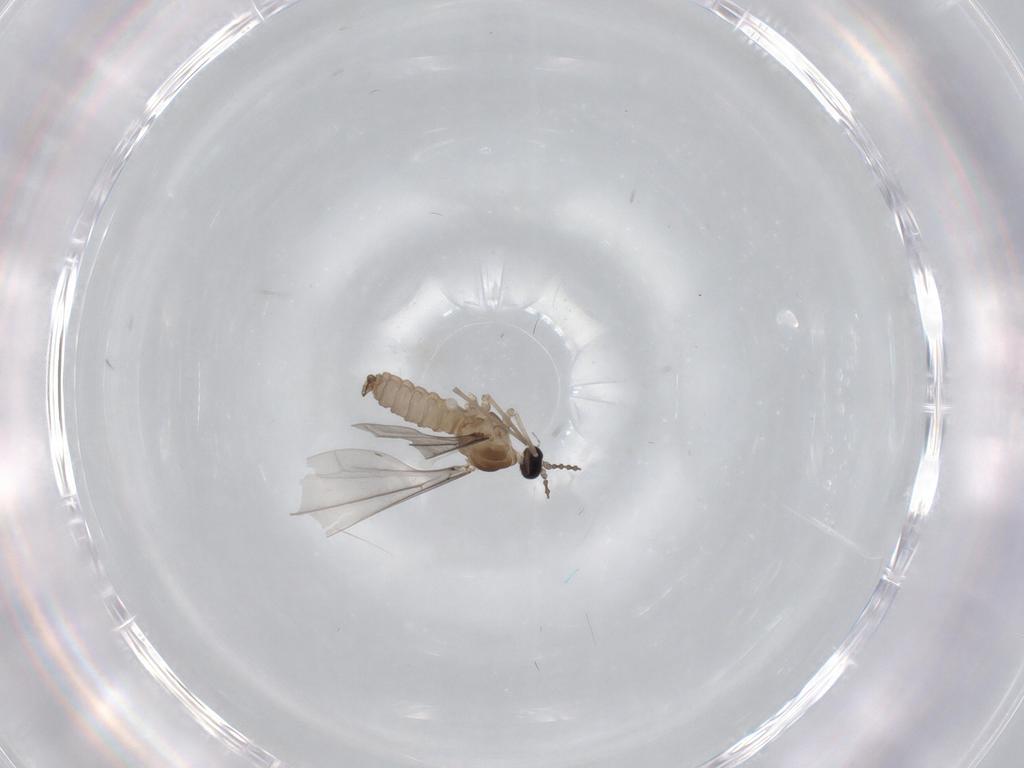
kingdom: Animalia
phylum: Arthropoda
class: Insecta
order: Diptera
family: Cecidomyiidae
